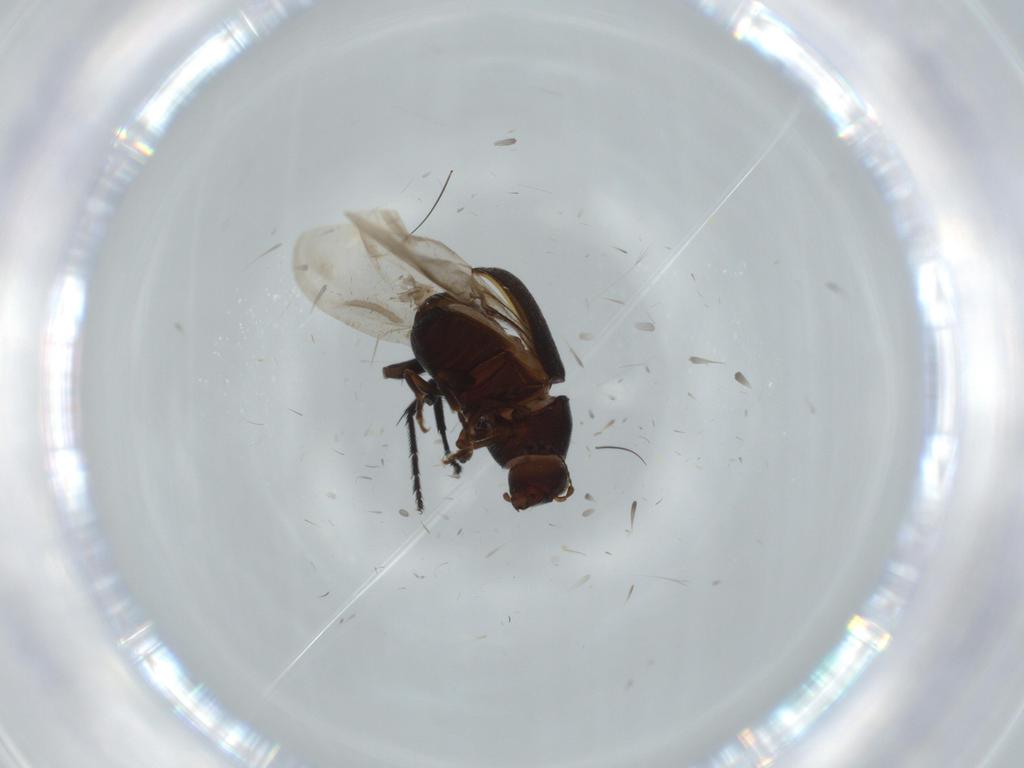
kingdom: Animalia
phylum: Arthropoda
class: Insecta
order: Coleoptera
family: Anthribidae
